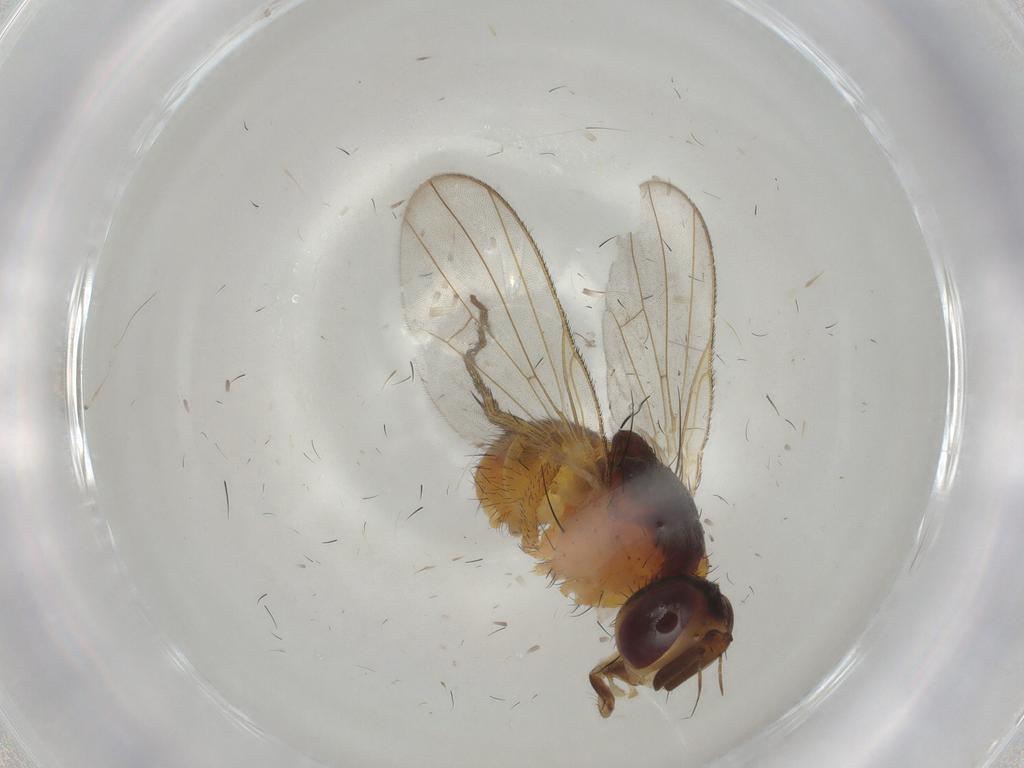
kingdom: Animalia
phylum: Arthropoda
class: Insecta
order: Diptera
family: Muscidae
